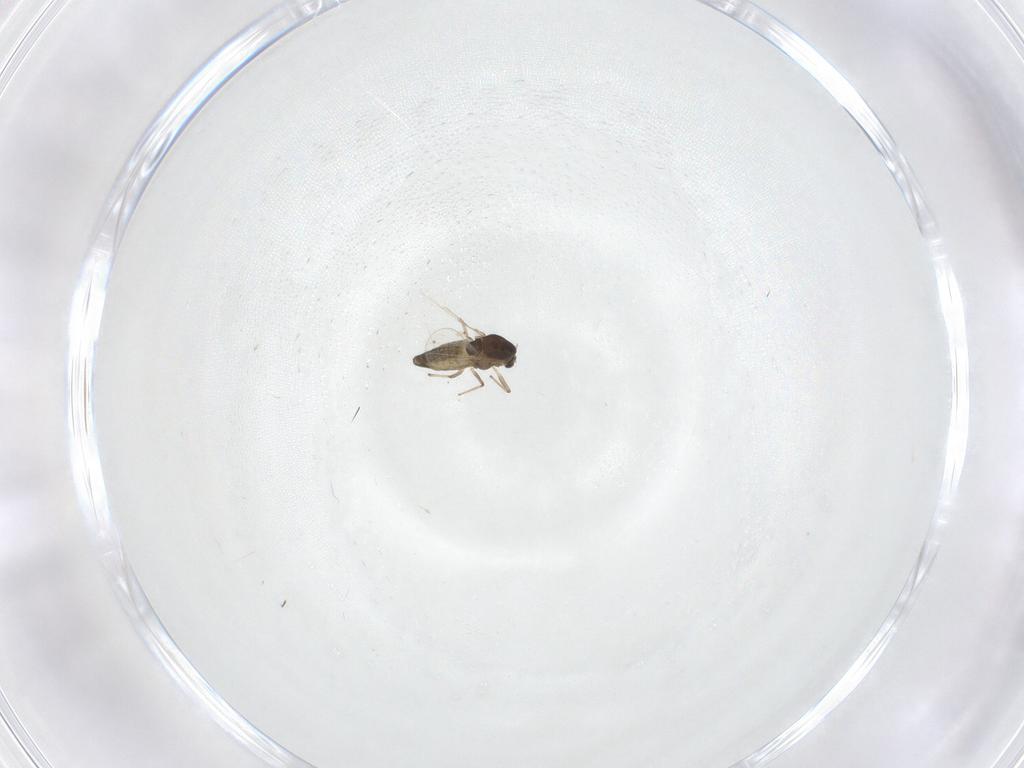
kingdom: Animalia
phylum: Arthropoda
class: Insecta
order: Diptera
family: Chironomidae
